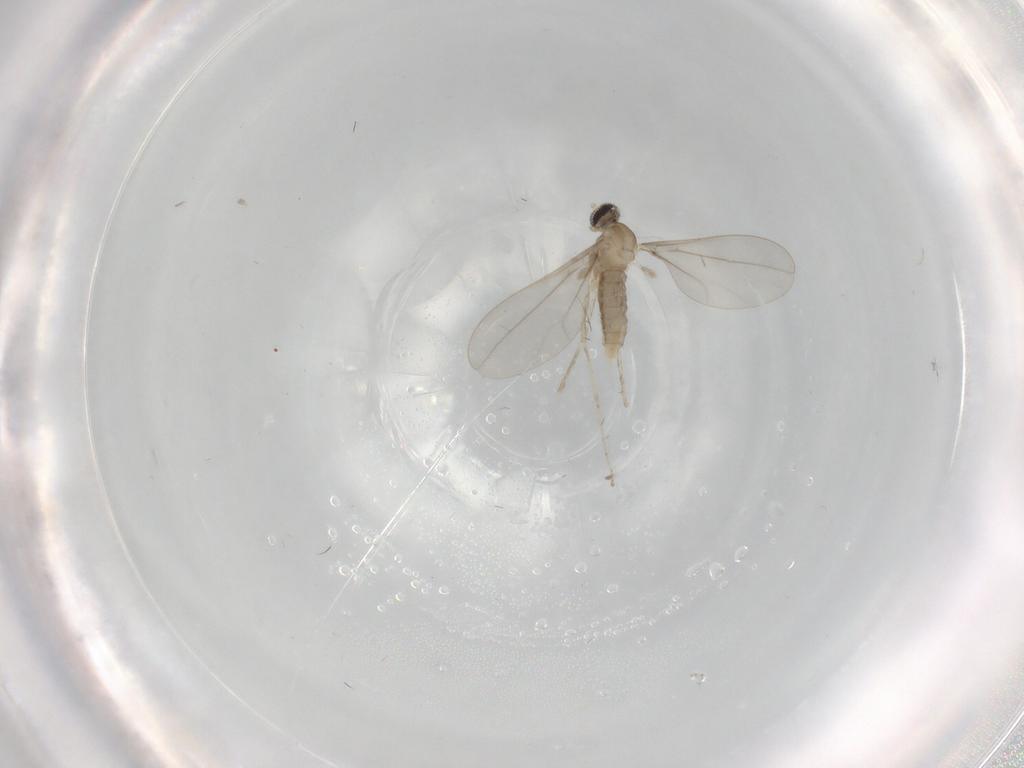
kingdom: Animalia
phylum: Arthropoda
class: Insecta
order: Diptera
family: Cecidomyiidae
